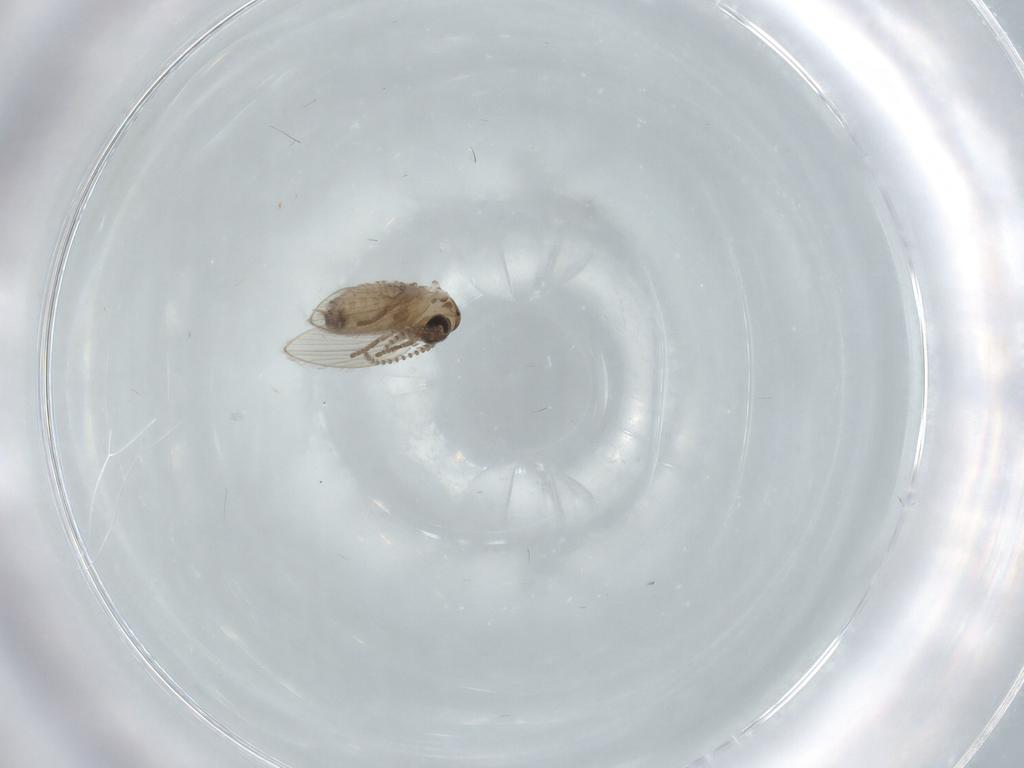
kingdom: Animalia
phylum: Arthropoda
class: Insecta
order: Diptera
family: Psychodidae
